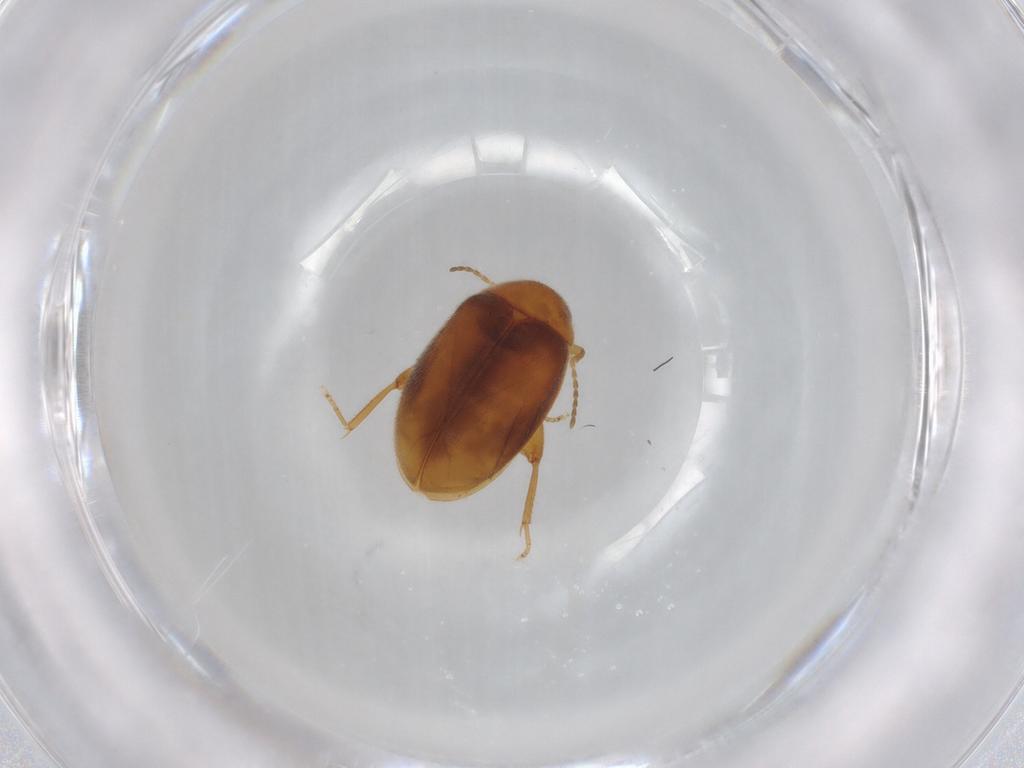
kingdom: Animalia
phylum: Arthropoda
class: Insecta
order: Coleoptera
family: Scirtidae
